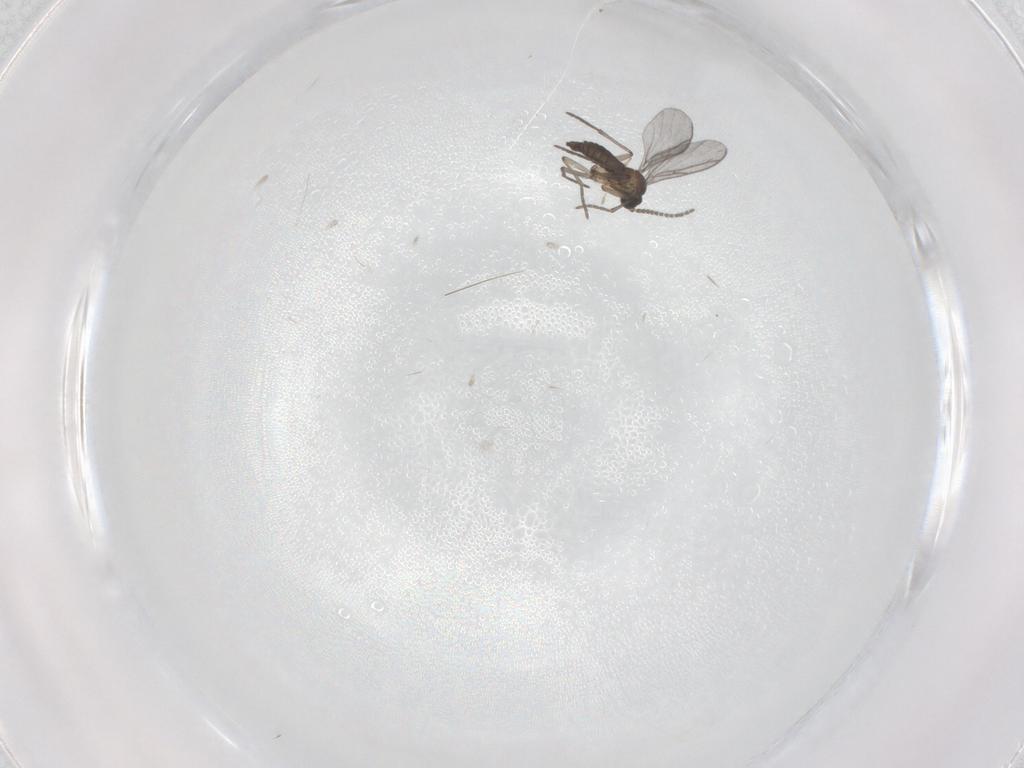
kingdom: Animalia
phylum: Arthropoda
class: Insecta
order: Diptera
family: Sciaridae
